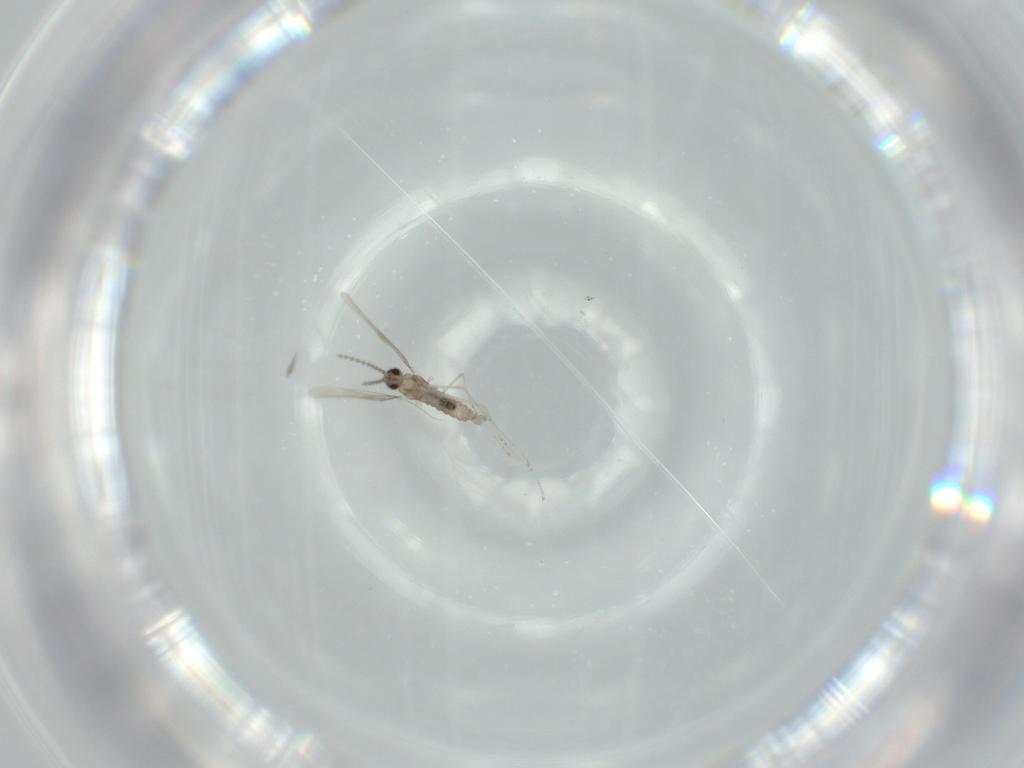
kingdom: Animalia
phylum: Arthropoda
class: Insecta
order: Diptera
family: Cecidomyiidae
